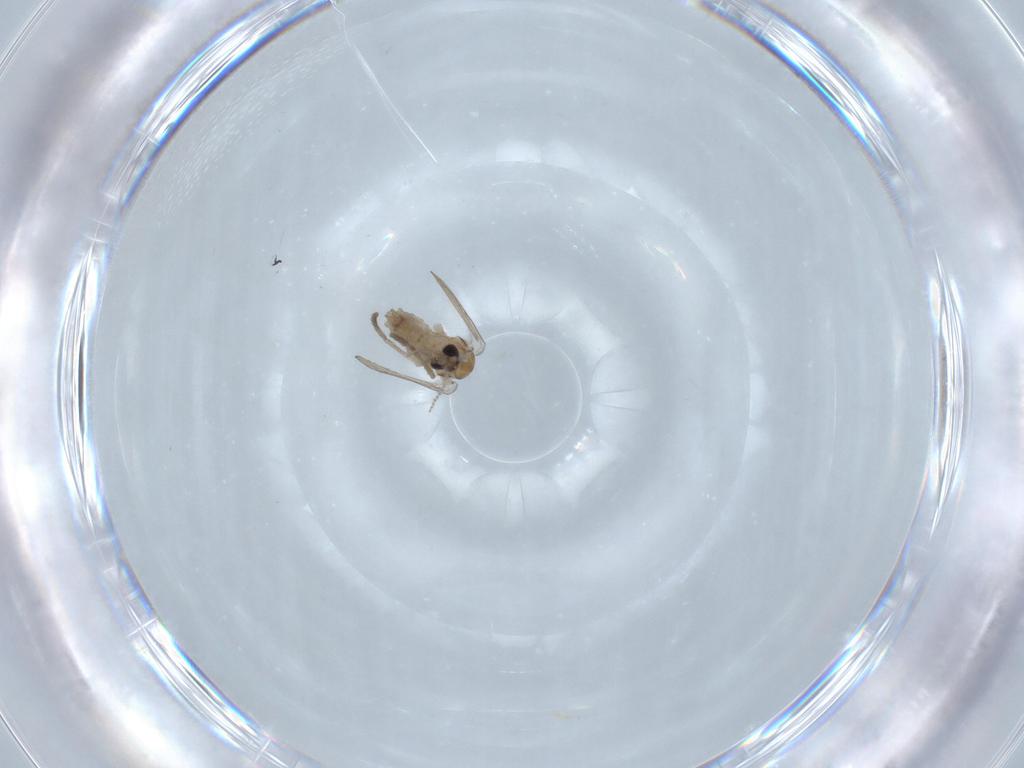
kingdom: Animalia
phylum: Arthropoda
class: Insecta
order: Diptera
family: Psychodidae
